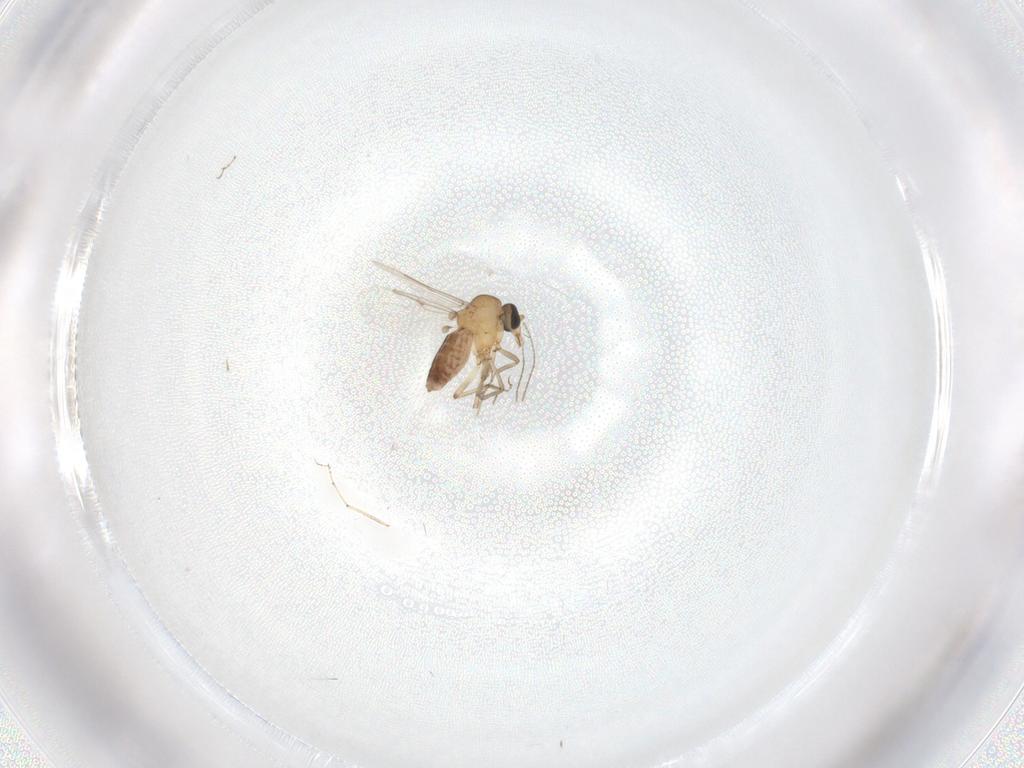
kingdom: Animalia
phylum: Arthropoda
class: Insecta
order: Diptera
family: Ceratopogonidae
